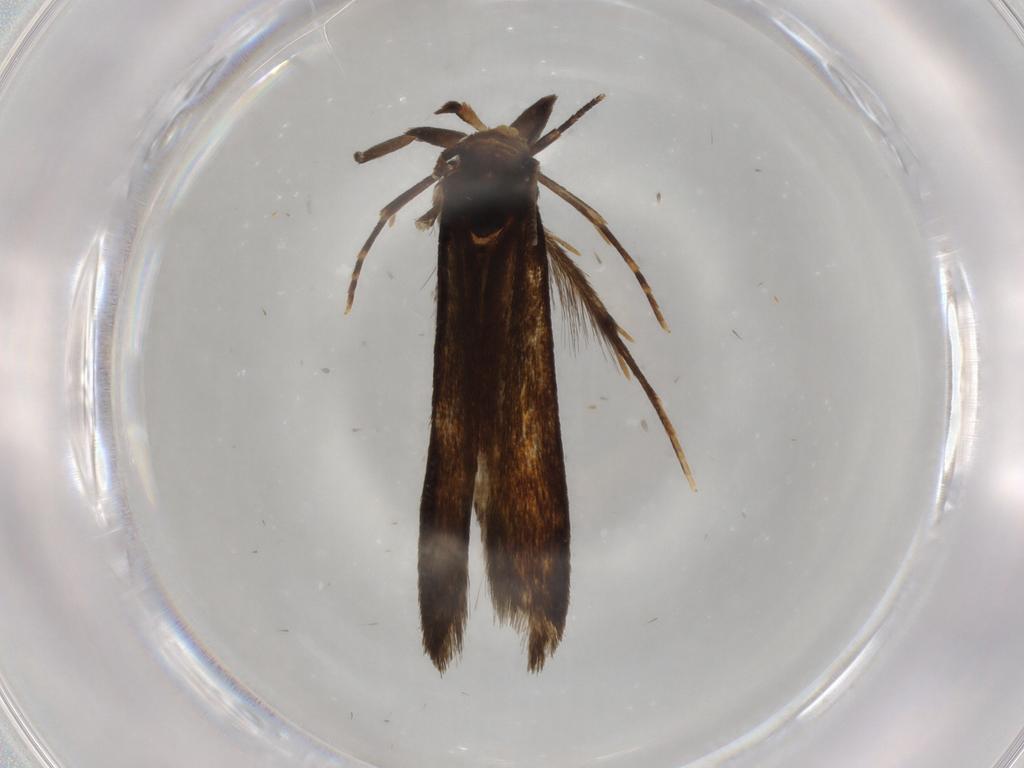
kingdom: Animalia
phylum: Arthropoda
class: Insecta
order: Lepidoptera
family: Tineidae
